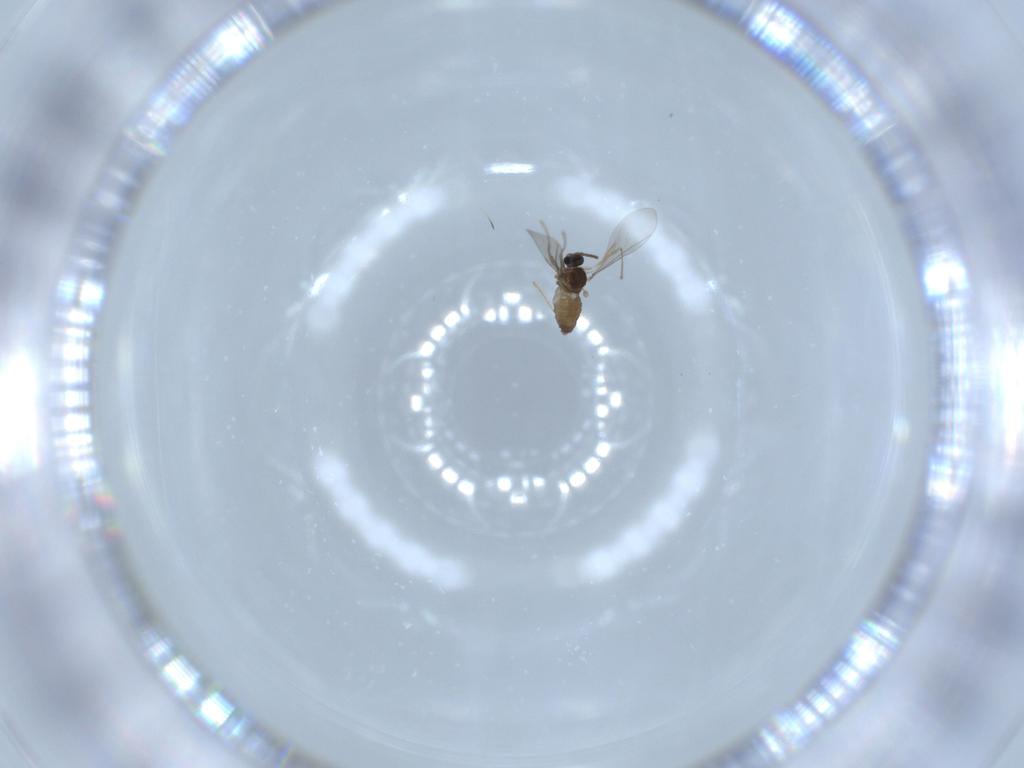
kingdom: Animalia
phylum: Arthropoda
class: Insecta
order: Diptera
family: Cecidomyiidae
